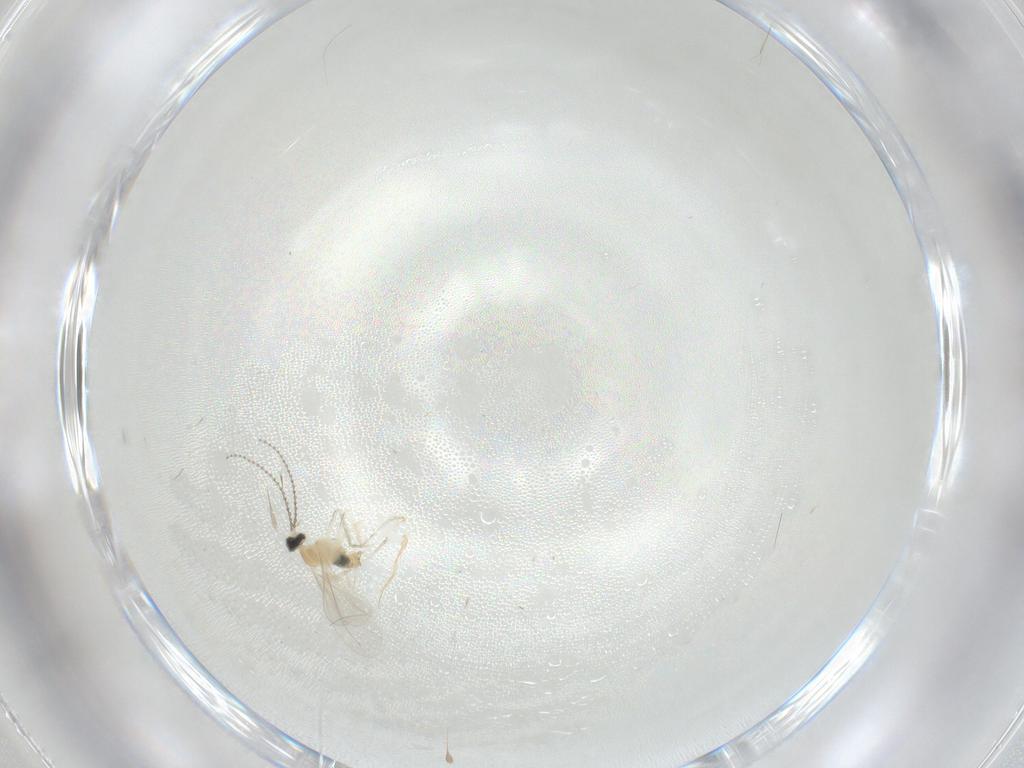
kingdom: Animalia
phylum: Arthropoda
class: Insecta
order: Diptera
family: Cecidomyiidae
